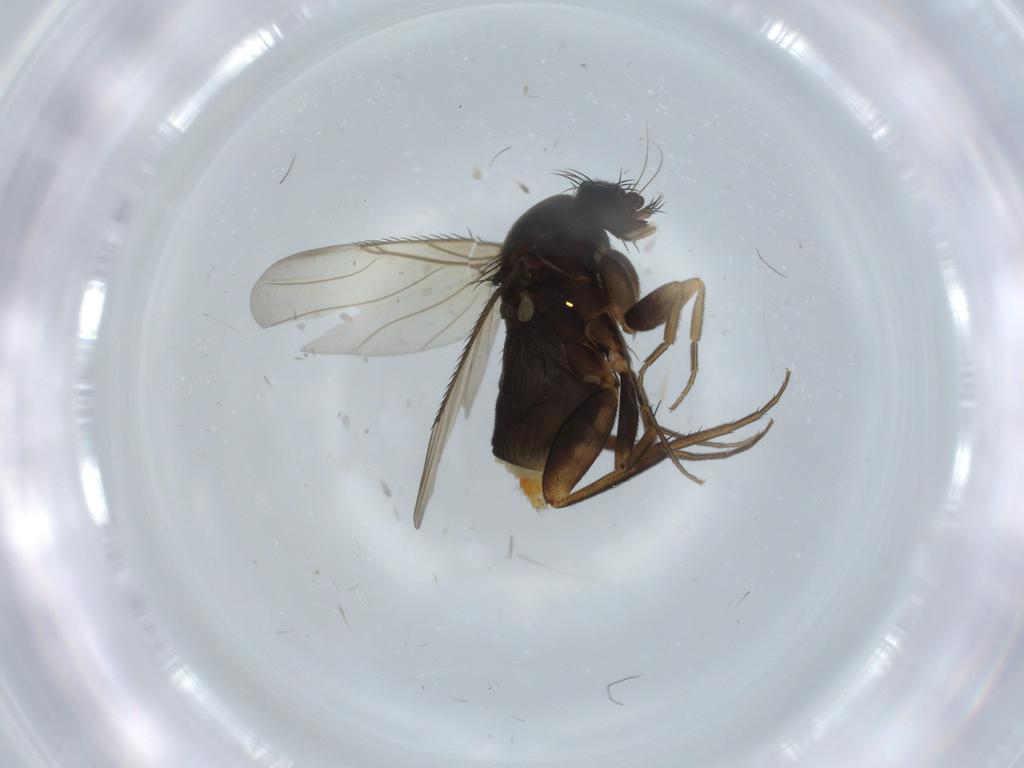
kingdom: Animalia
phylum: Arthropoda
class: Insecta
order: Diptera
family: Phoridae
